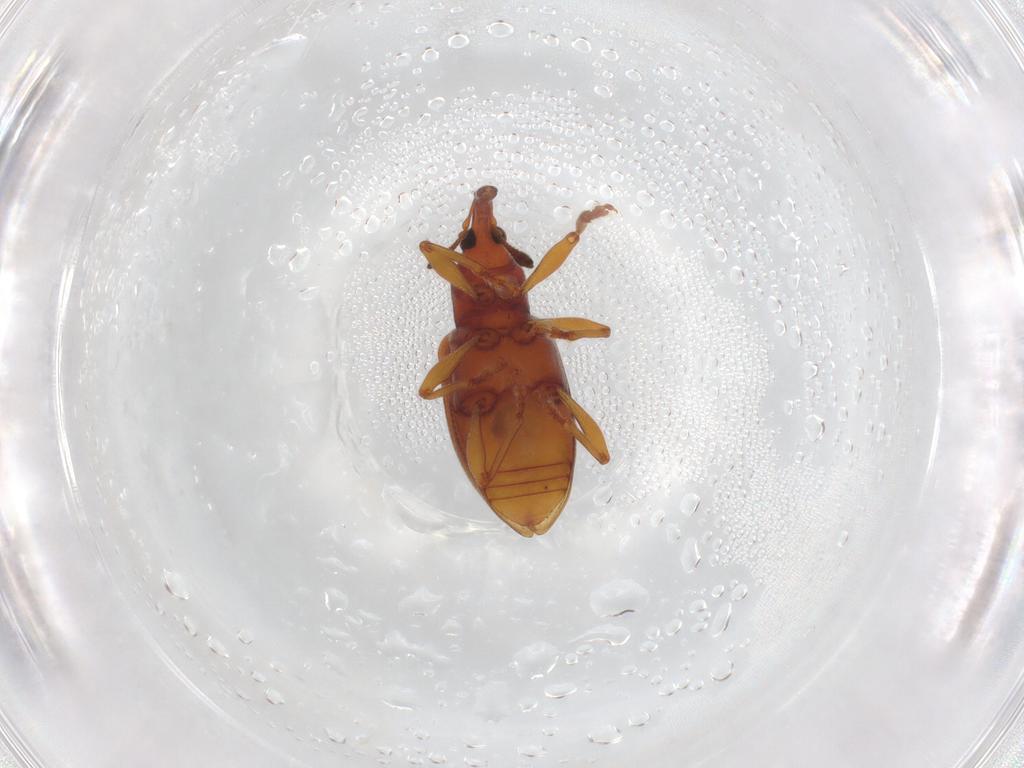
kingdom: Animalia
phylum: Arthropoda
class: Insecta
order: Coleoptera
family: Curculionidae
